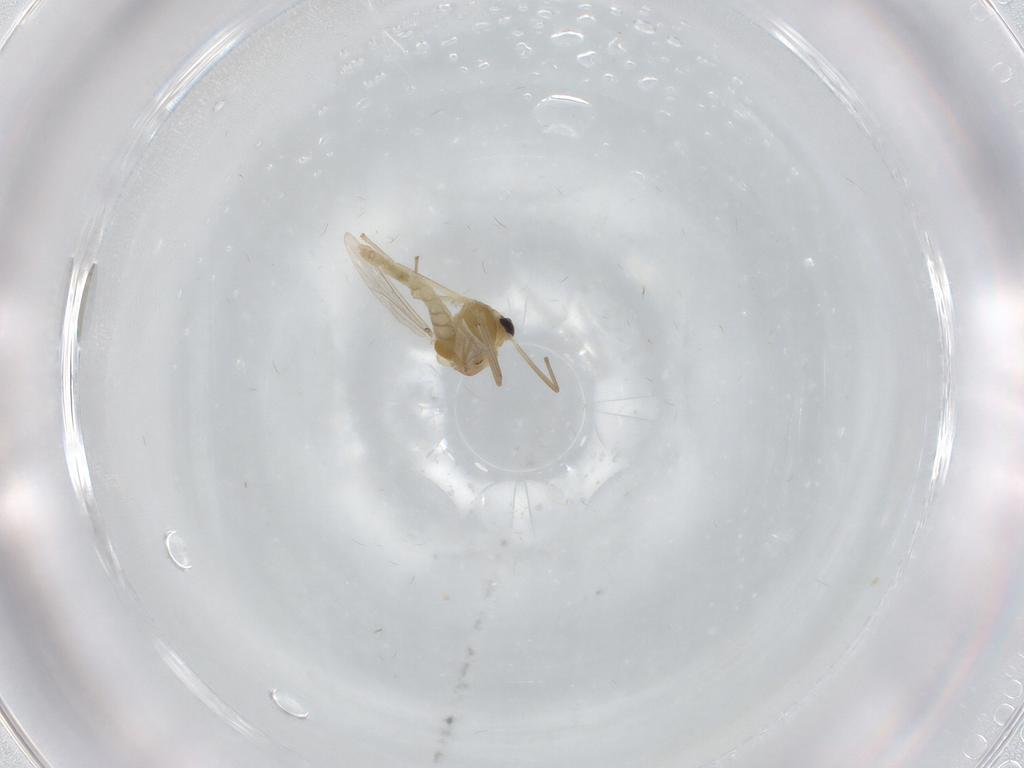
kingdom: Animalia
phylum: Arthropoda
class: Insecta
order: Diptera
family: Chironomidae
